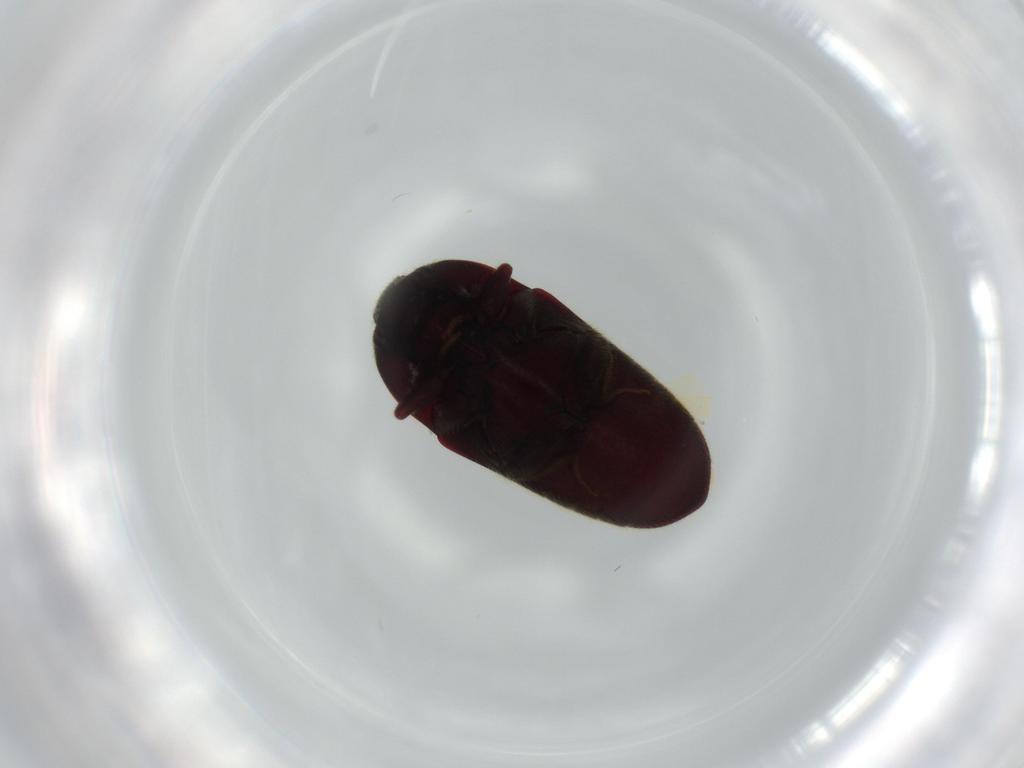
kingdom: Animalia
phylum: Arthropoda
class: Insecta
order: Coleoptera
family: Throscidae
